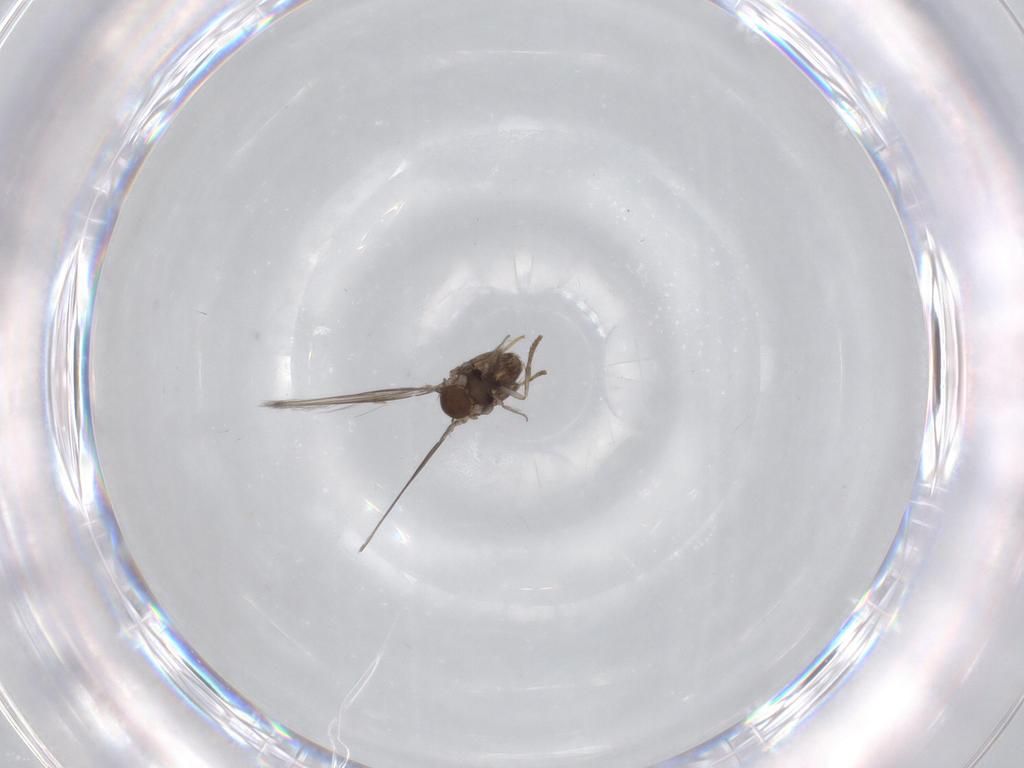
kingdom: Animalia
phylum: Arthropoda
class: Insecta
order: Diptera
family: Psychodidae
